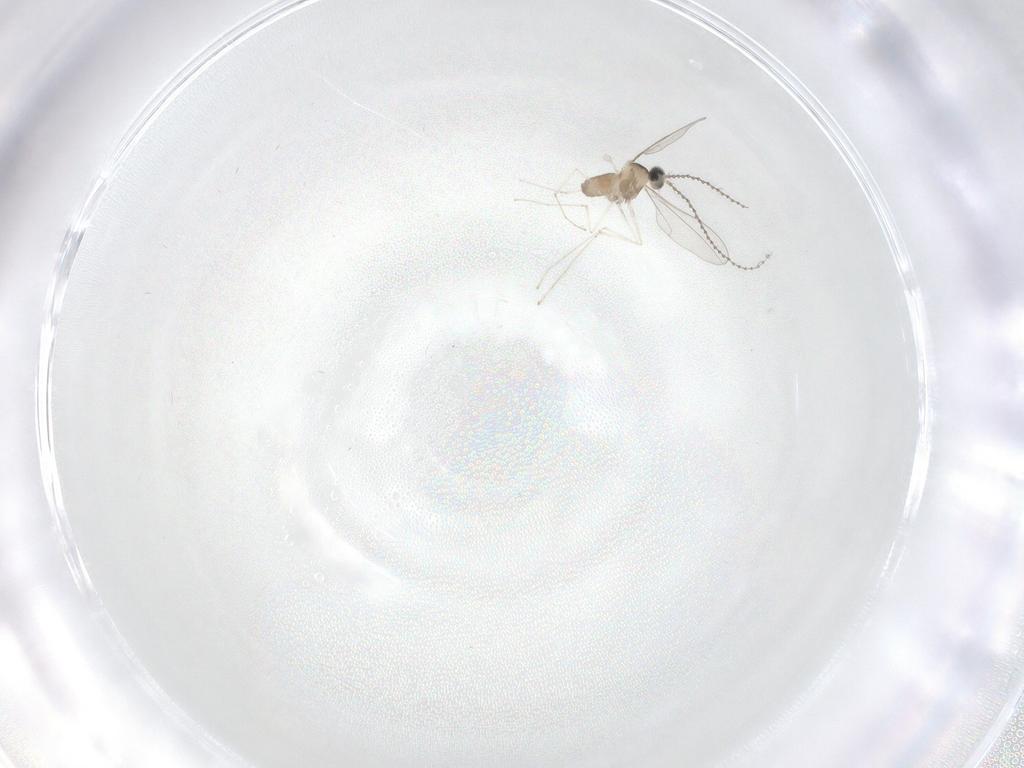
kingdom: Animalia
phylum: Arthropoda
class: Insecta
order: Diptera
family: Cecidomyiidae
